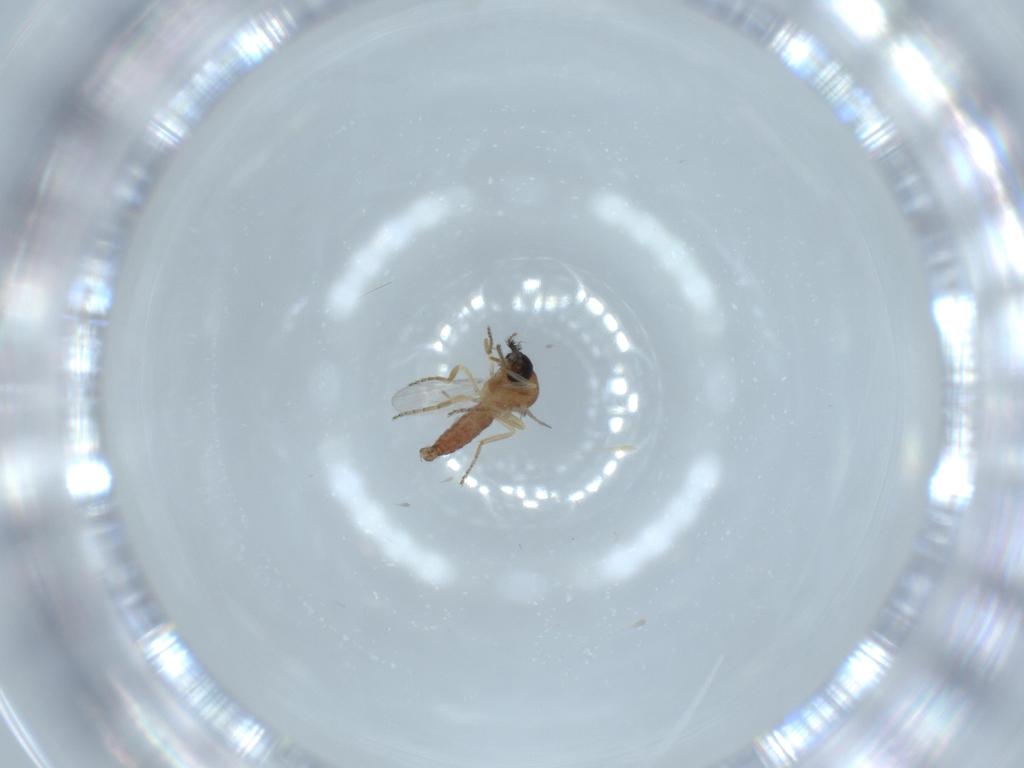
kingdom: Animalia
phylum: Arthropoda
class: Insecta
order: Diptera
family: Ceratopogonidae
